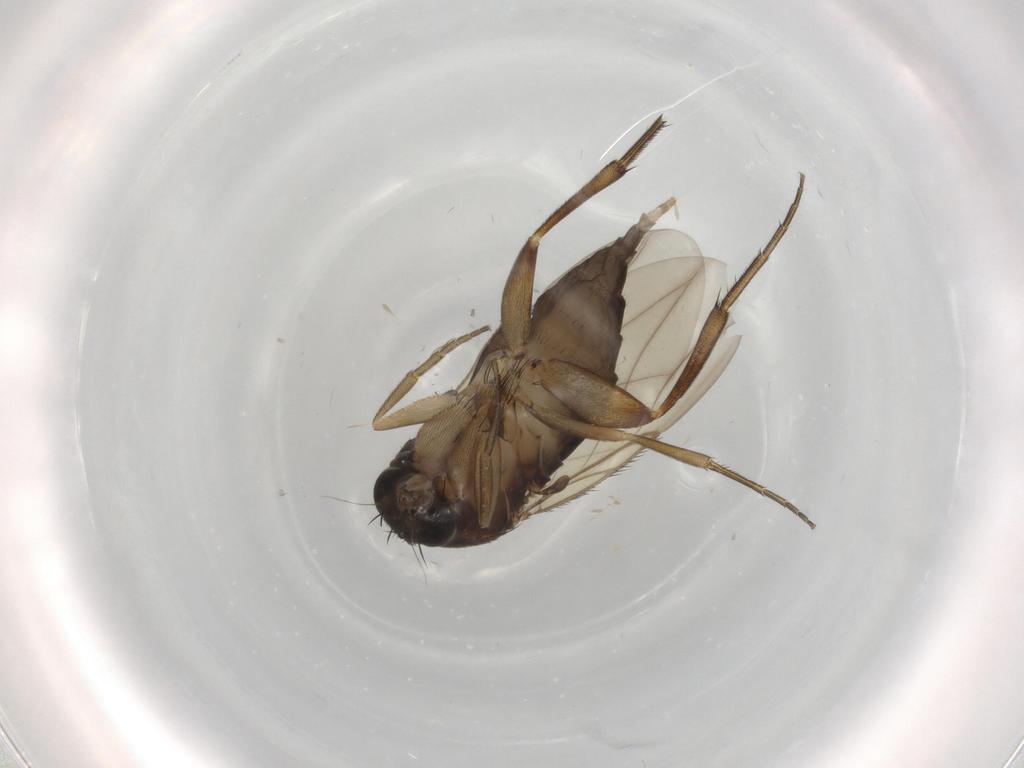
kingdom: Animalia
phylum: Arthropoda
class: Insecta
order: Diptera
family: Phoridae
